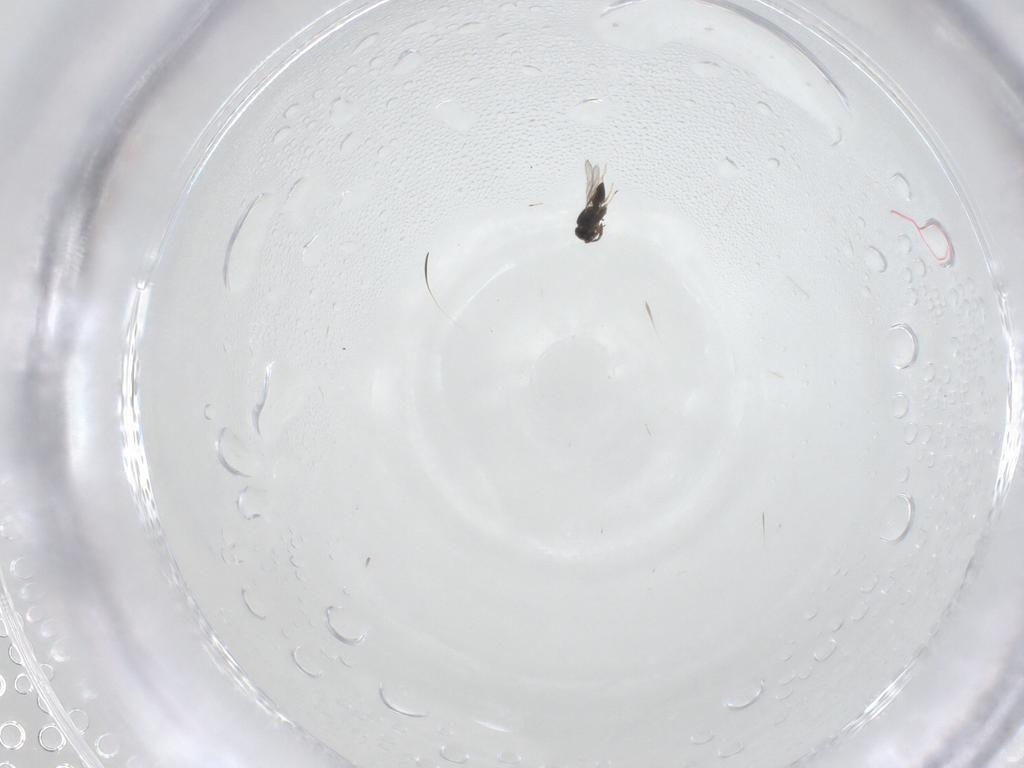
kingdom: Animalia
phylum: Arthropoda
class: Insecta
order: Hymenoptera
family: Scelionidae
